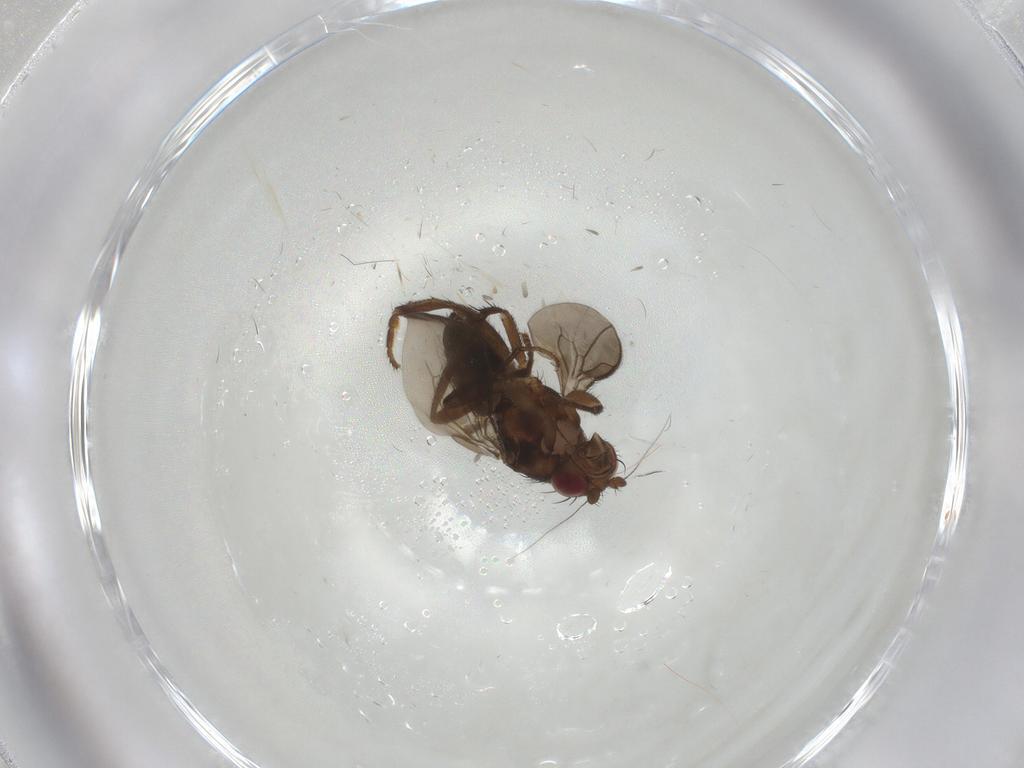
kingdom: Animalia
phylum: Arthropoda
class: Insecta
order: Diptera
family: Sphaeroceridae
